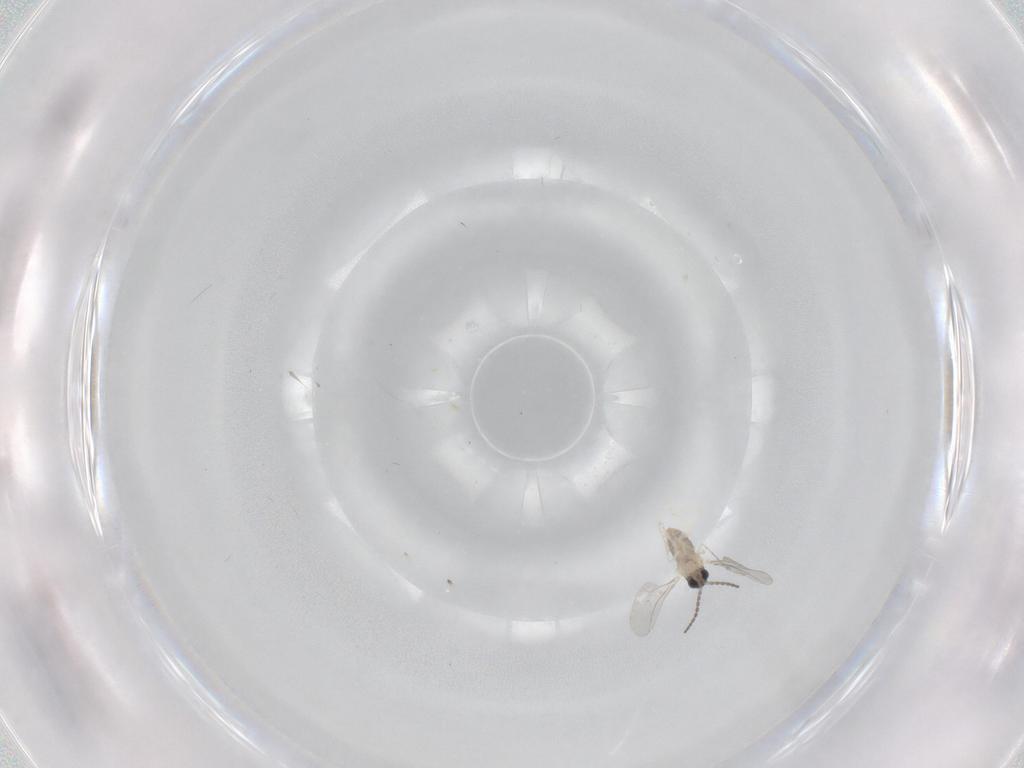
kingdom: Animalia
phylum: Arthropoda
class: Insecta
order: Diptera
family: Cecidomyiidae
